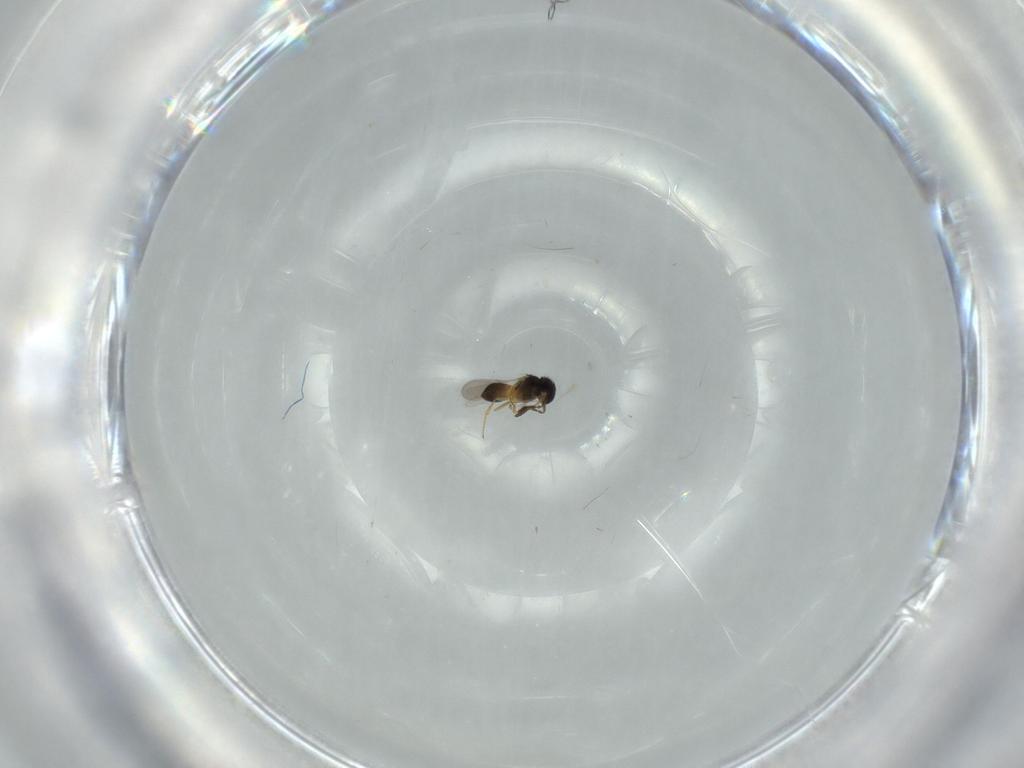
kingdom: Animalia
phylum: Arthropoda
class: Insecta
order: Hymenoptera
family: Scelionidae
